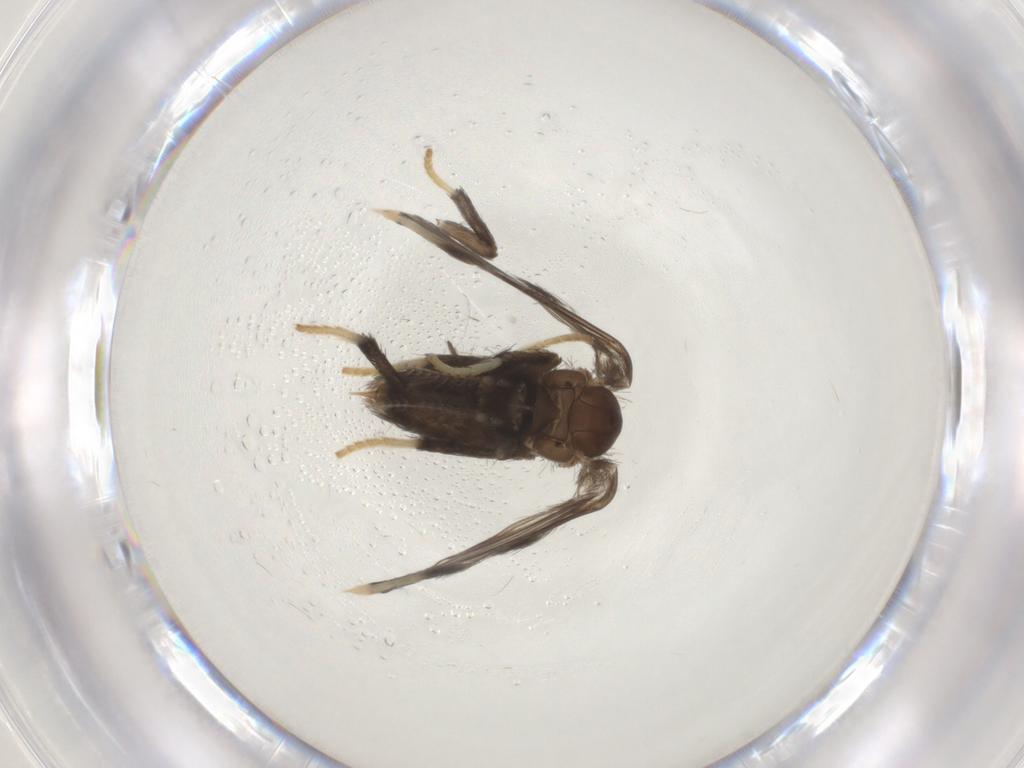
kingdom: Animalia
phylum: Arthropoda
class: Insecta
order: Diptera
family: Psychodidae
